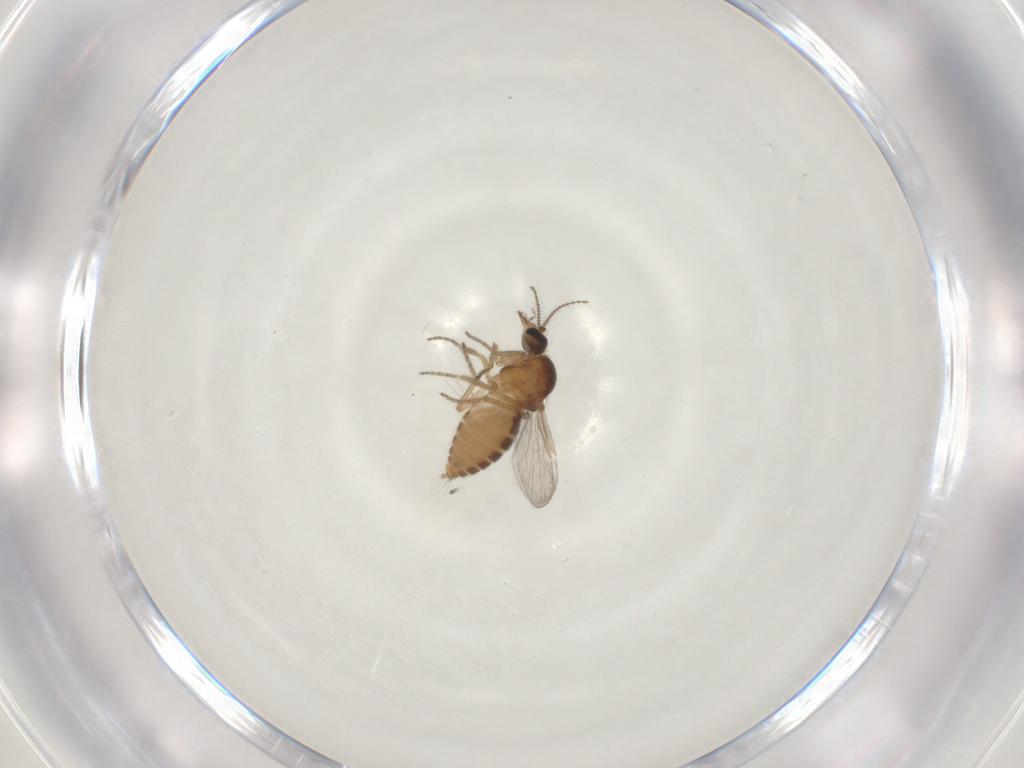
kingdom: Animalia
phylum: Arthropoda
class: Insecta
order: Diptera
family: Ceratopogonidae
